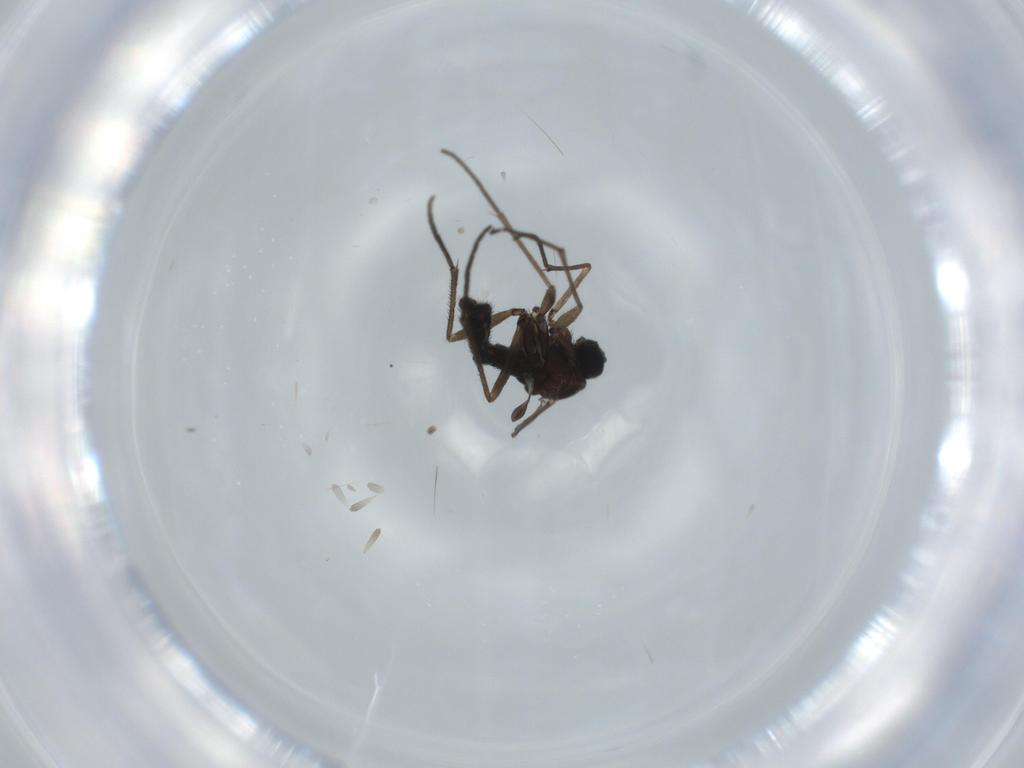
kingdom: Animalia
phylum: Arthropoda
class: Insecta
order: Diptera
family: Sciaridae
